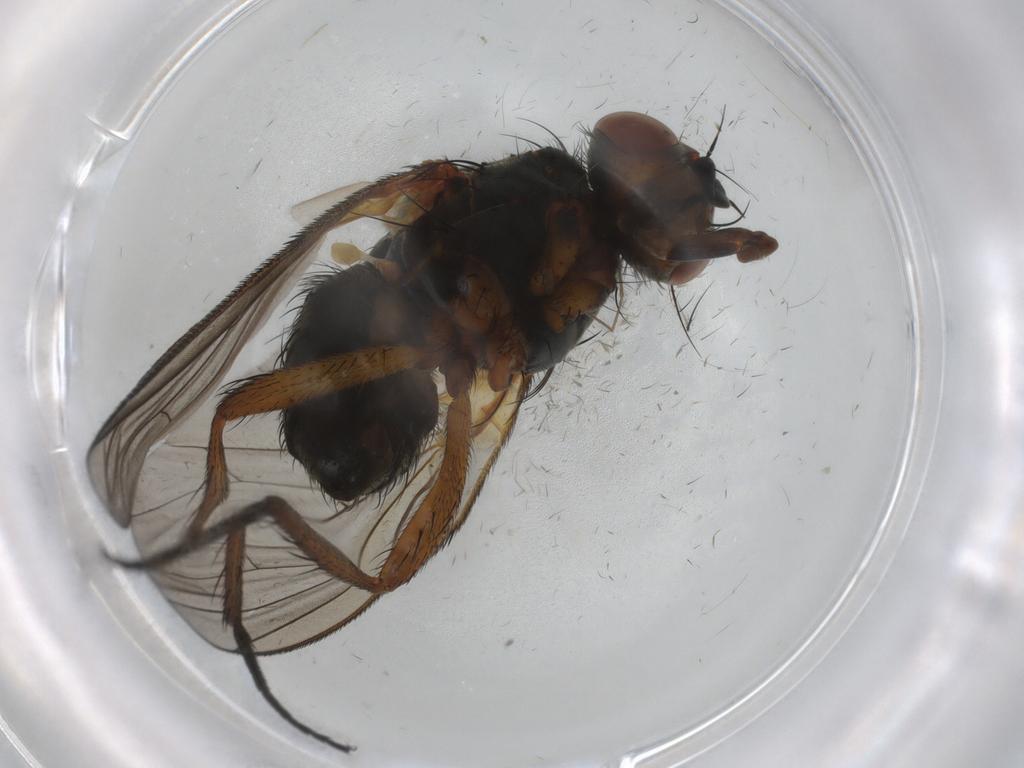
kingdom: Animalia
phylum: Arthropoda
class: Insecta
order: Diptera
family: Anthomyiidae
